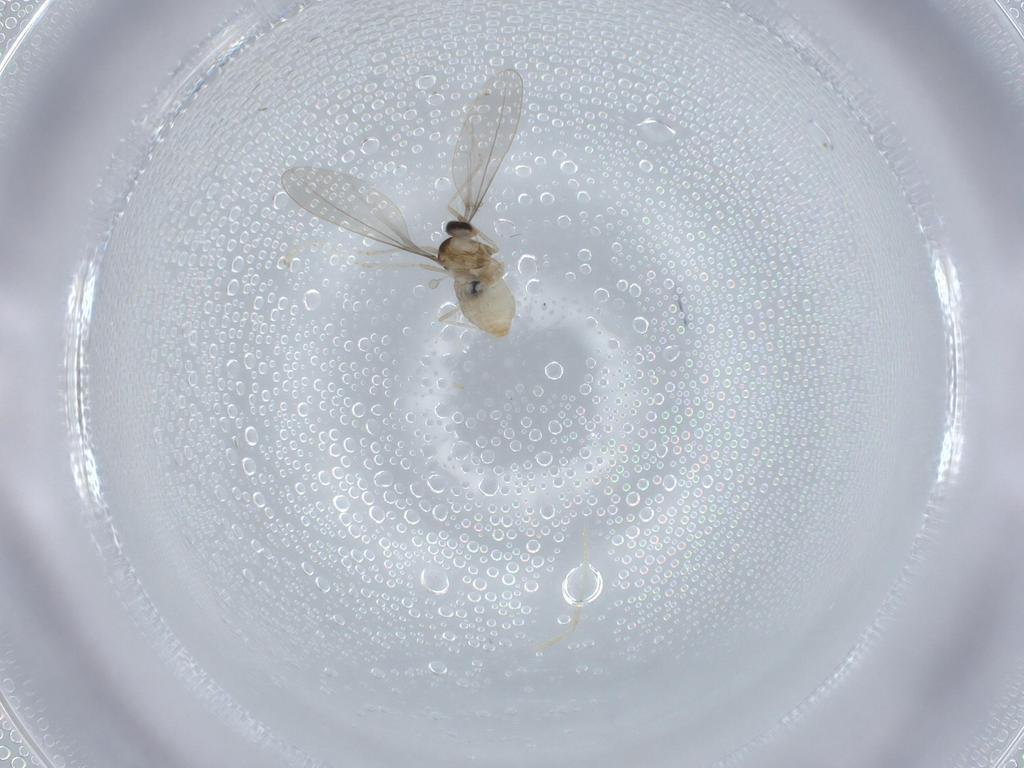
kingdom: Animalia
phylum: Arthropoda
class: Insecta
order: Diptera
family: Cecidomyiidae
